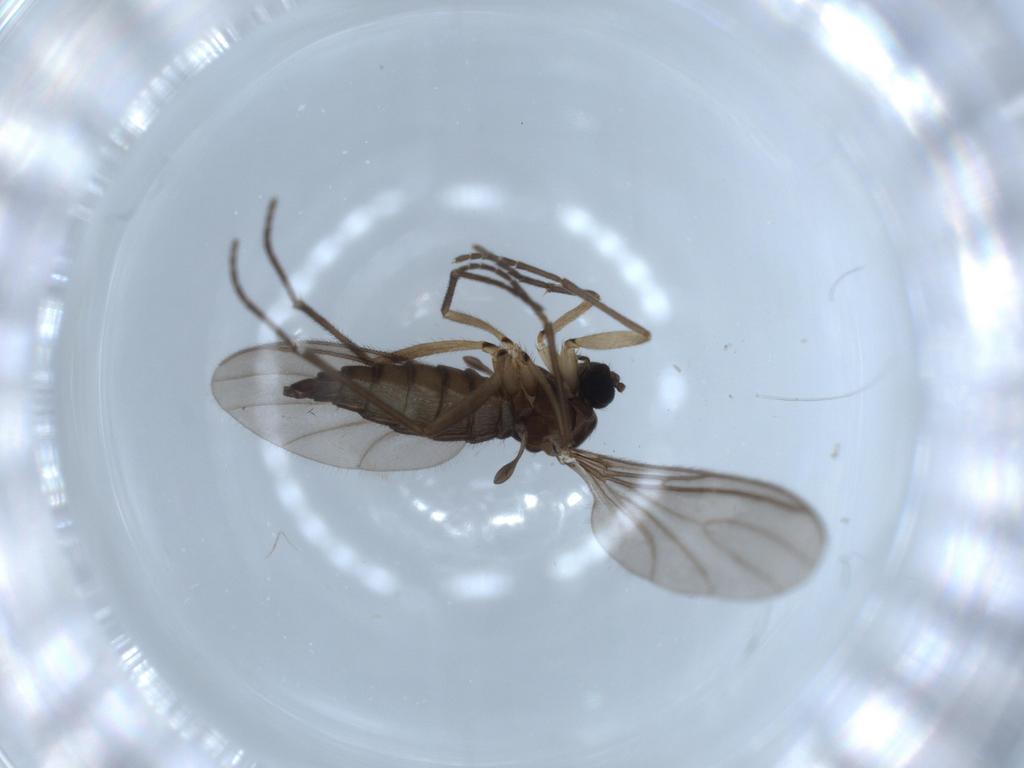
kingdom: Animalia
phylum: Arthropoda
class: Insecta
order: Diptera
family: Sciaridae
